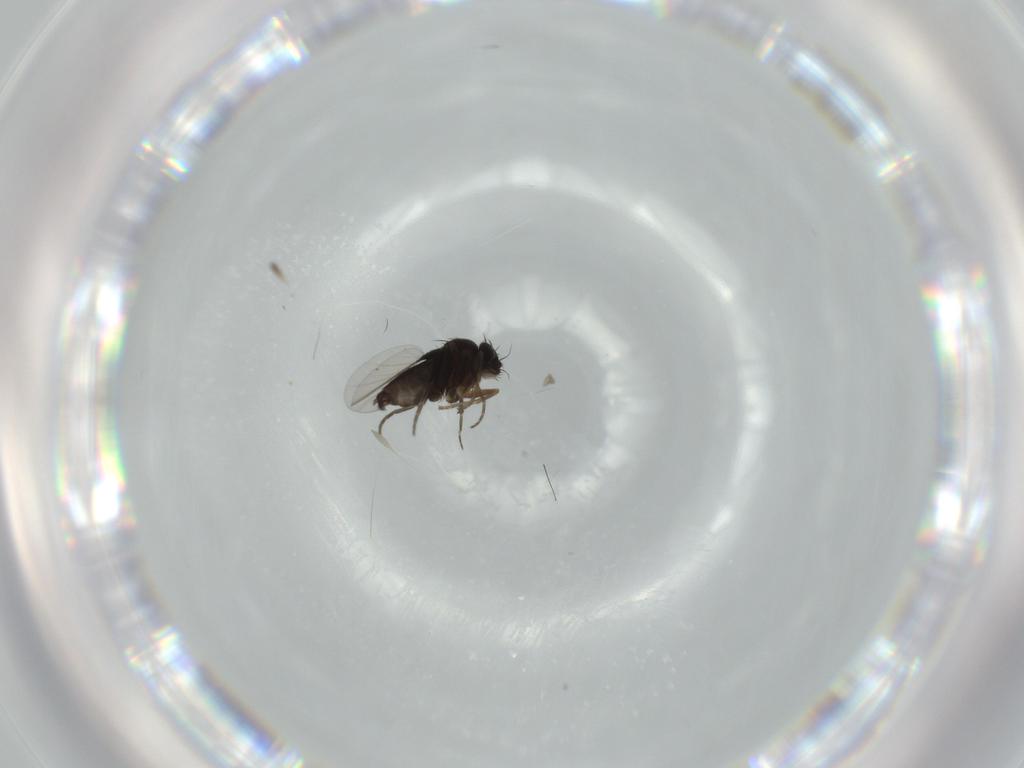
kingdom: Animalia
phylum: Arthropoda
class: Insecta
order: Diptera
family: Phoridae
